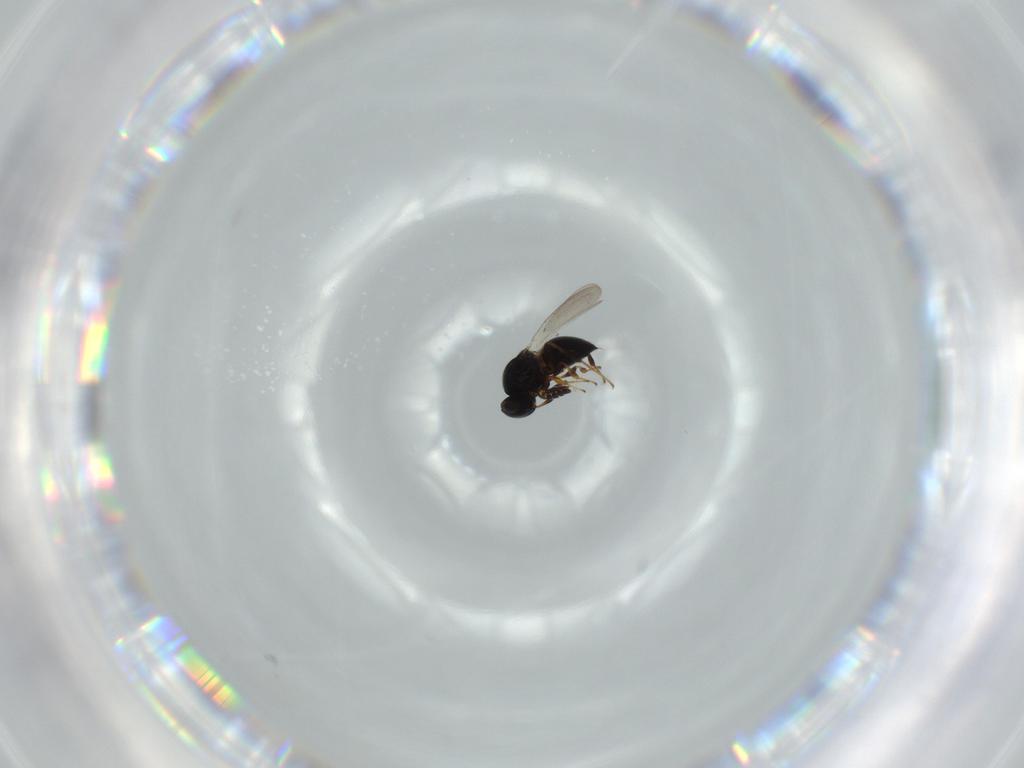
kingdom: Animalia
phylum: Arthropoda
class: Insecta
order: Hymenoptera
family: Platygastridae
